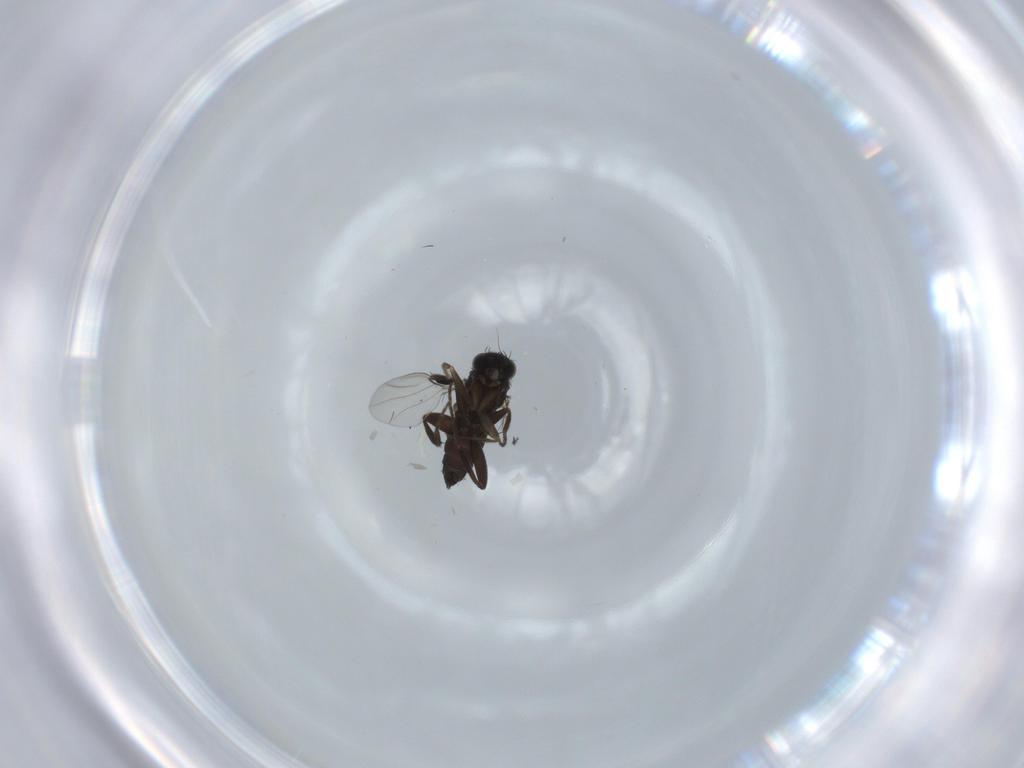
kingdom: Animalia
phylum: Arthropoda
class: Insecta
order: Diptera
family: Phoridae
